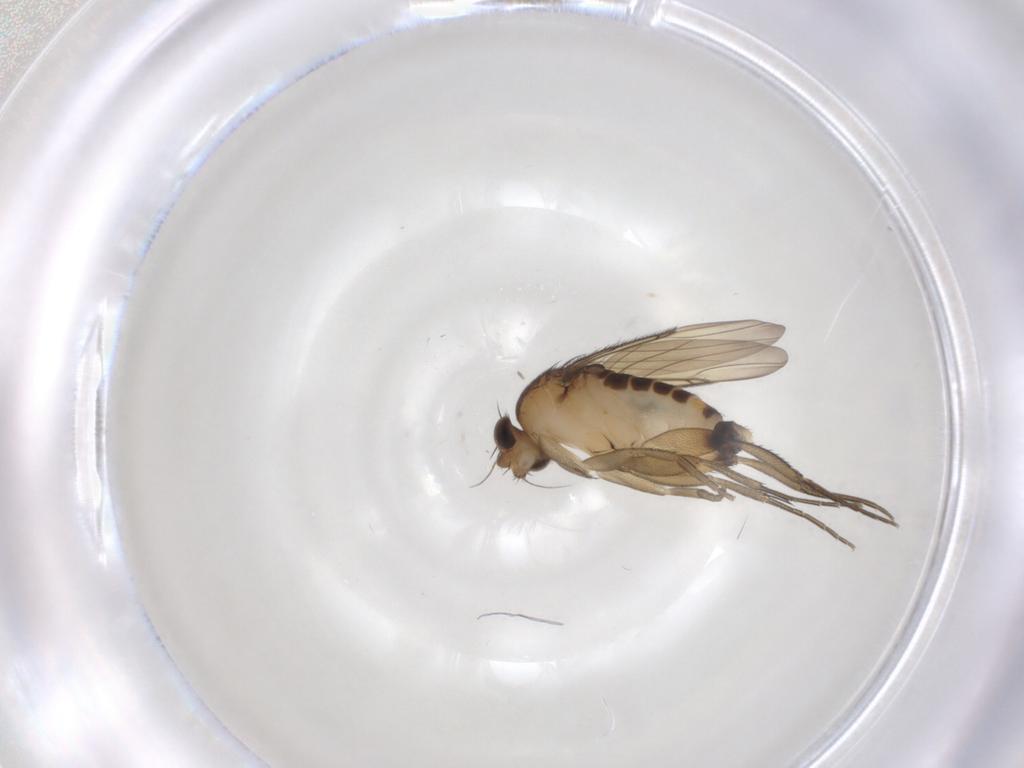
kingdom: Animalia
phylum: Arthropoda
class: Insecta
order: Diptera
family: Phoridae
